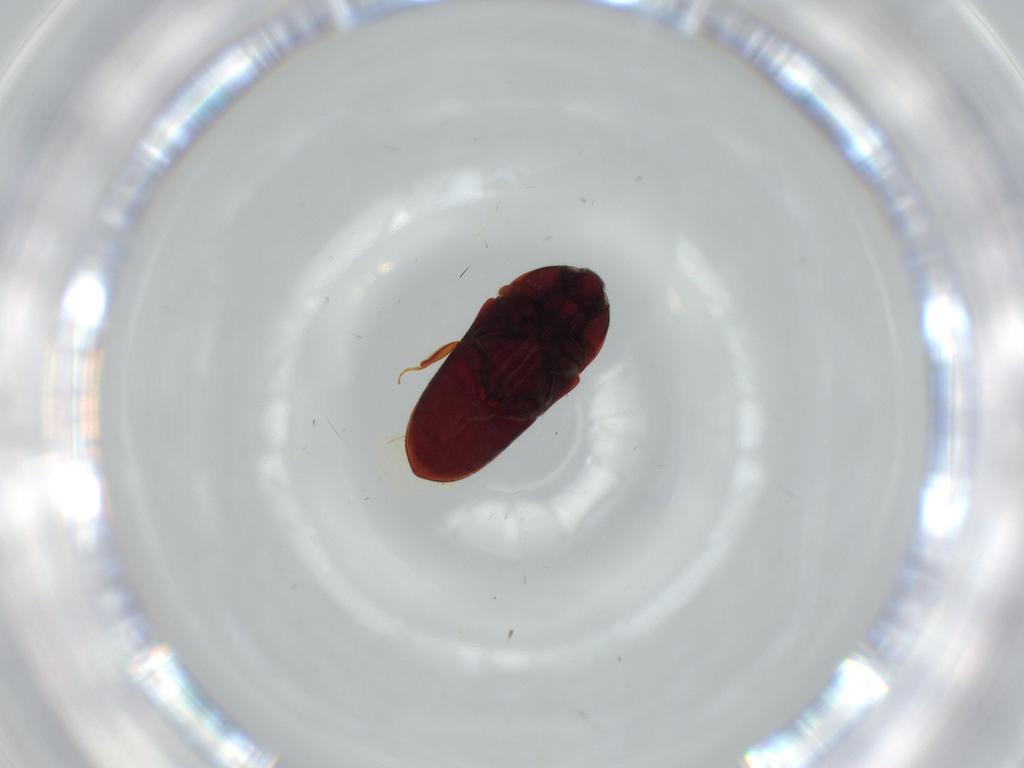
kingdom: Animalia
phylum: Arthropoda
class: Insecta
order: Coleoptera
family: Throscidae
